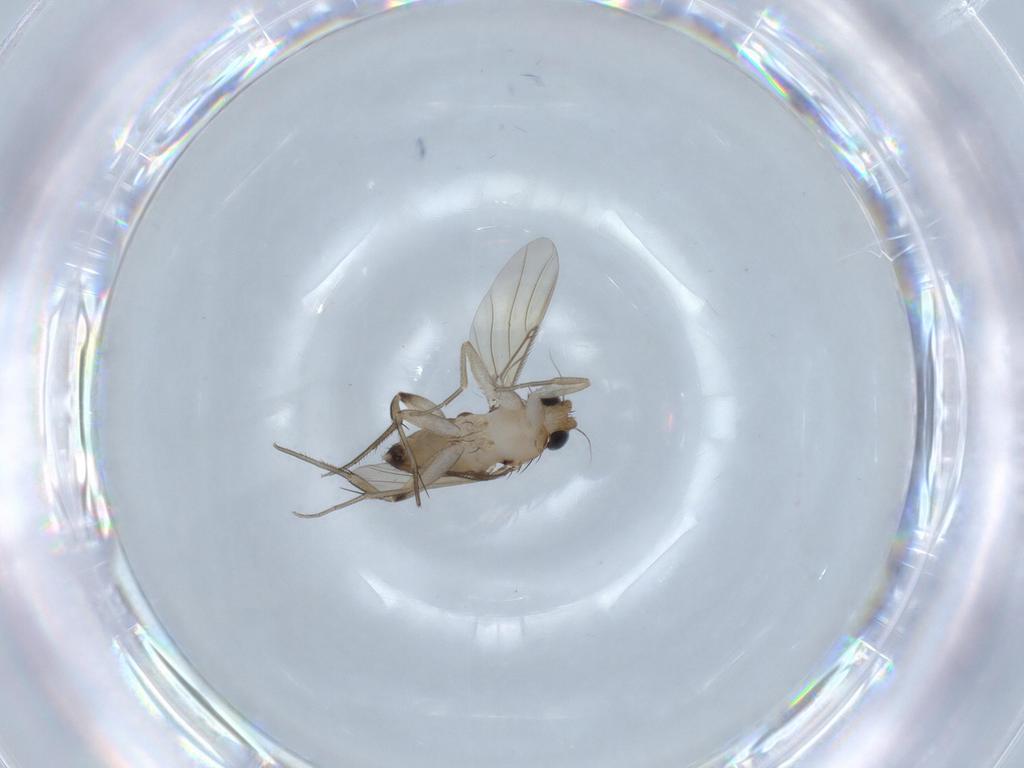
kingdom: Animalia
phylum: Arthropoda
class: Insecta
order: Diptera
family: Phoridae
